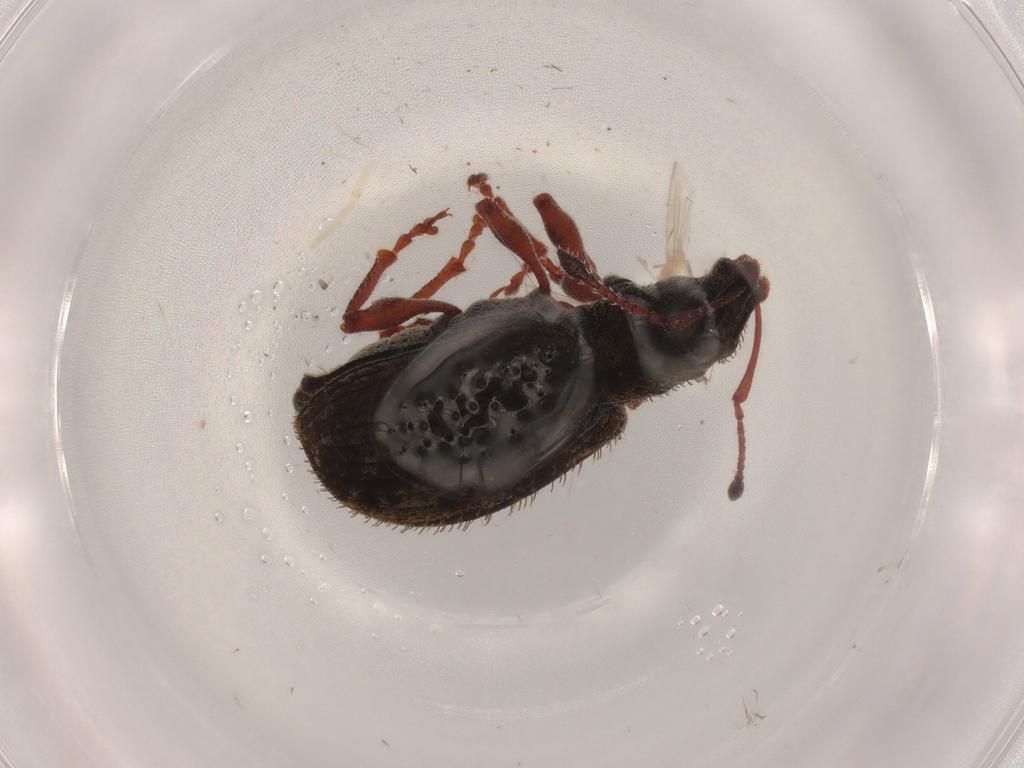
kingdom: Animalia
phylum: Arthropoda
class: Insecta
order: Coleoptera
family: Curculionidae
